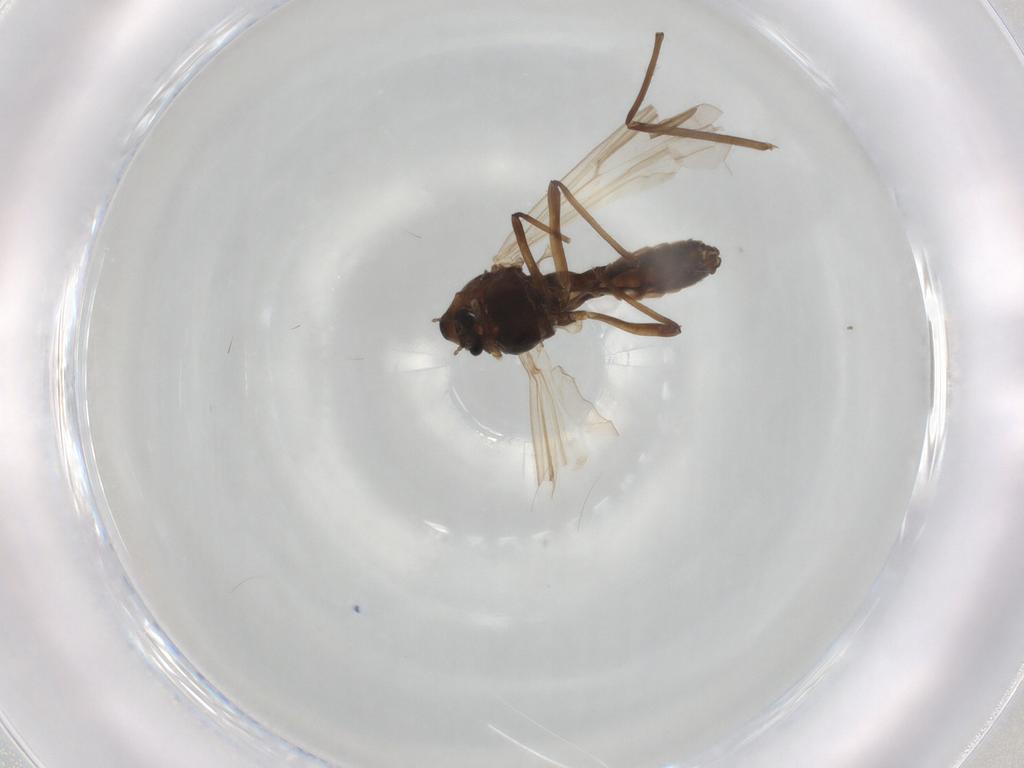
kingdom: Animalia
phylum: Arthropoda
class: Insecta
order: Diptera
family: Chironomidae
